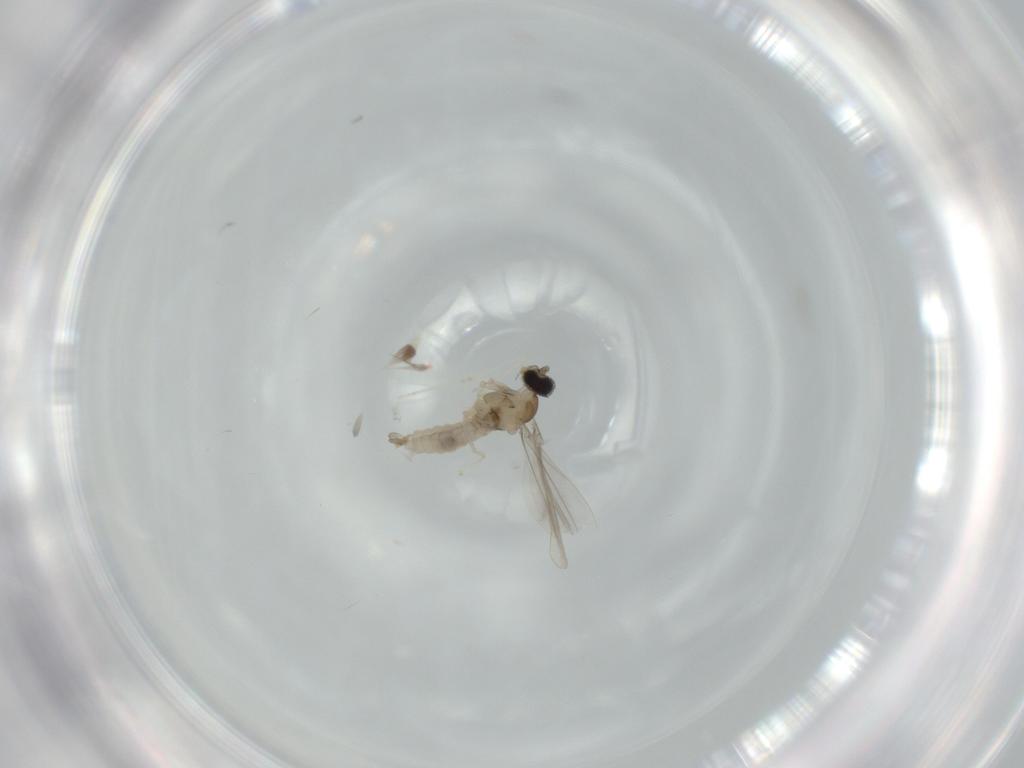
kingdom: Animalia
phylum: Arthropoda
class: Insecta
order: Diptera
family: Cecidomyiidae
